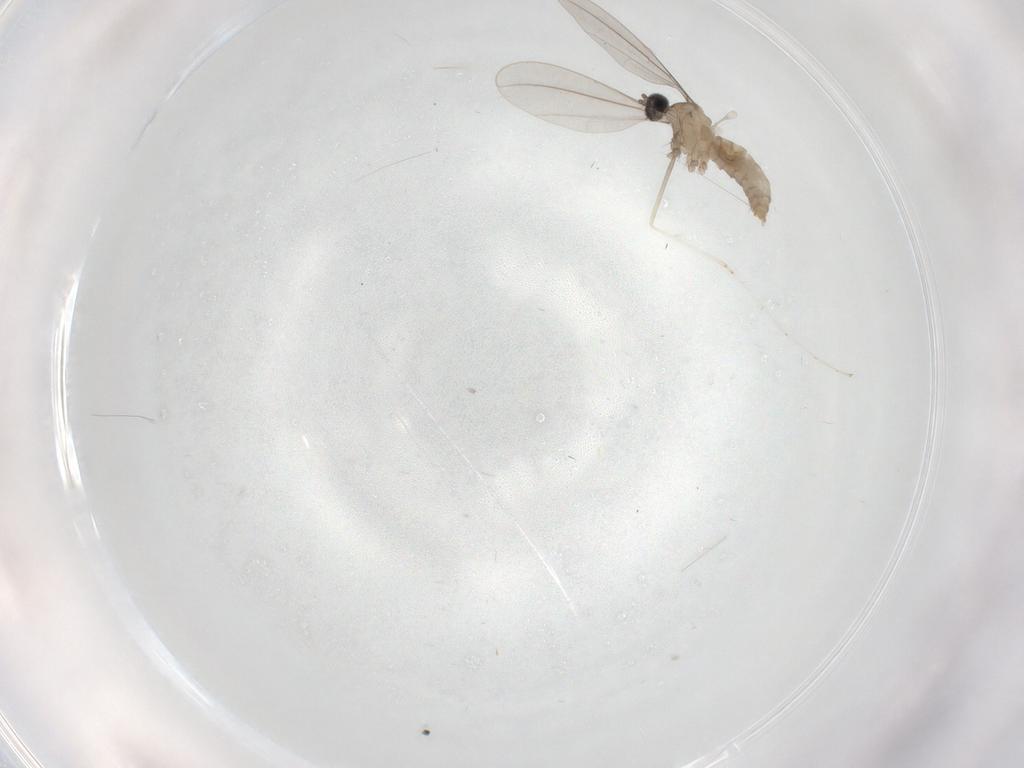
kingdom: Animalia
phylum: Arthropoda
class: Insecta
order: Diptera
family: Cecidomyiidae
